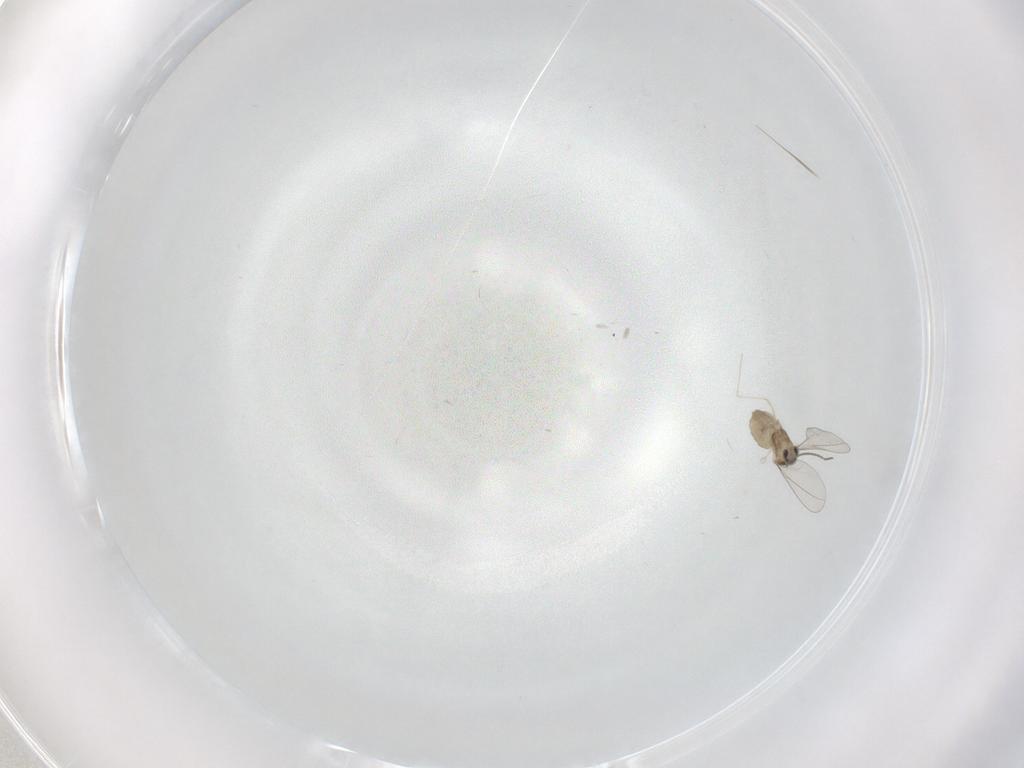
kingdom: Animalia
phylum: Arthropoda
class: Insecta
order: Diptera
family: Cecidomyiidae
